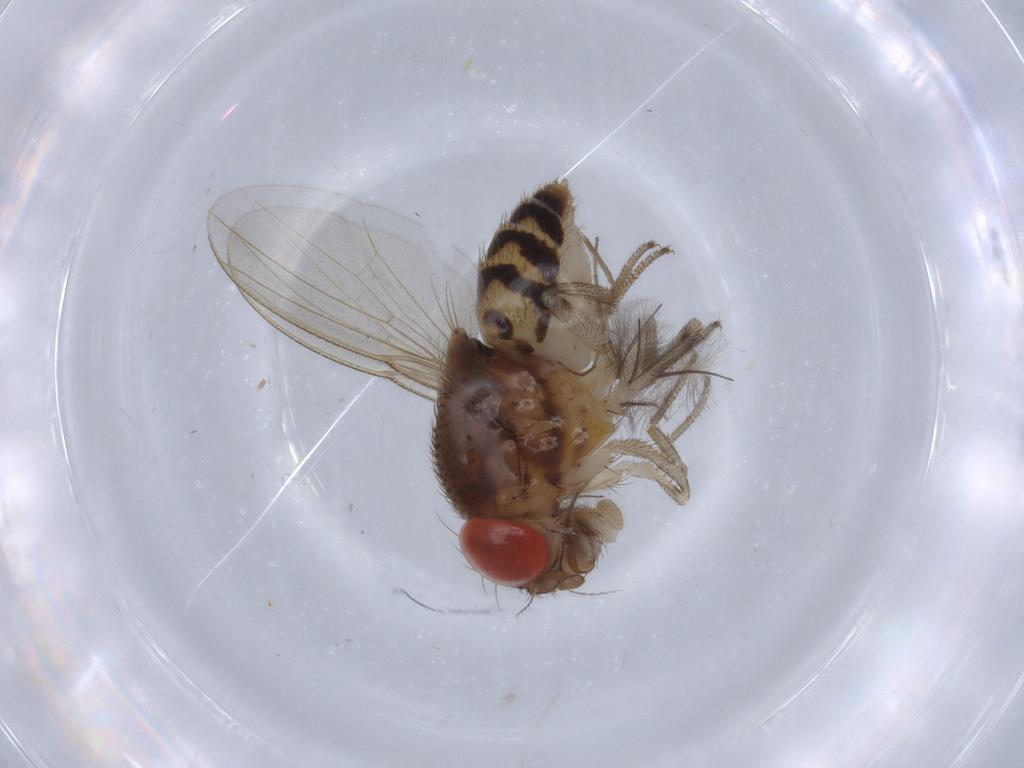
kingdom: Animalia
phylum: Arthropoda
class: Insecta
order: Diptera
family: Drosophilidae
